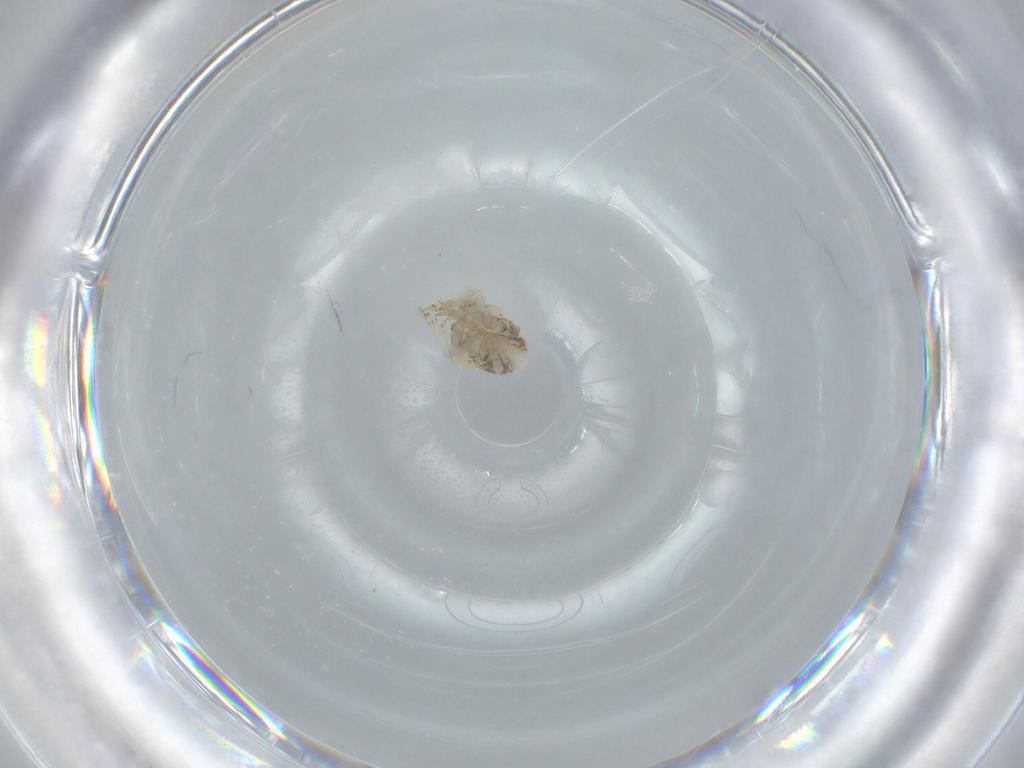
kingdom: Animalia
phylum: Arthropoda
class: Insecta
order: Hemiptera
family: Acanaloniidae
